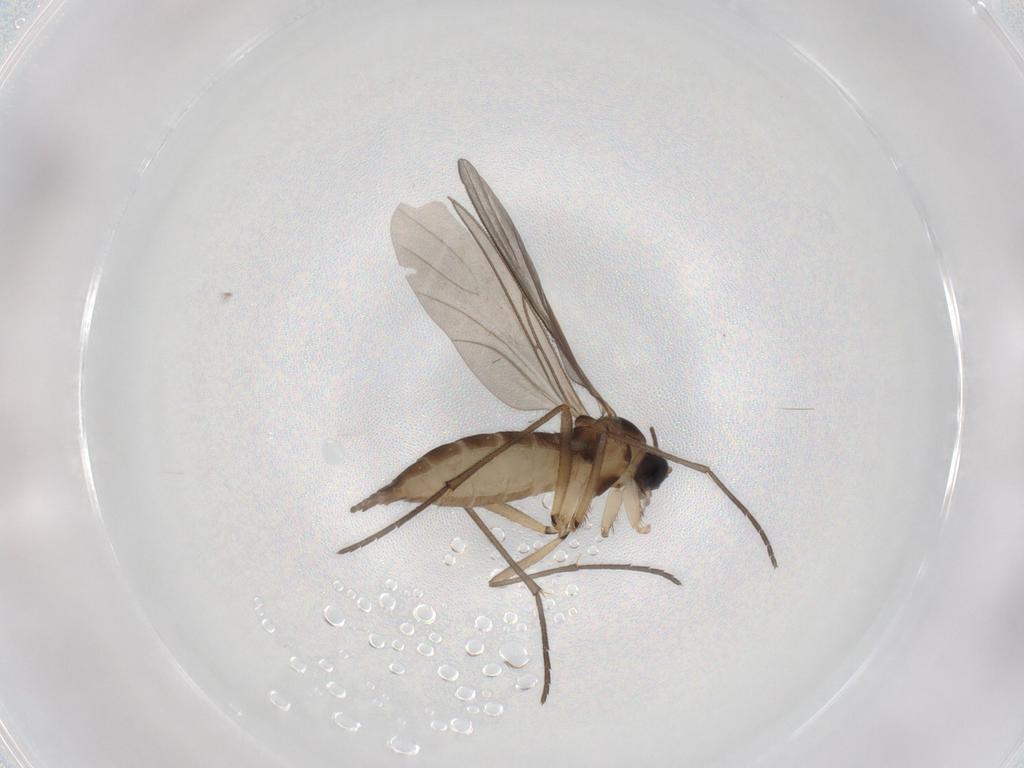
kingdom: Animalia
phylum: Arthropoda
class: Insecta
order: Diptera
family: Sciaridae
